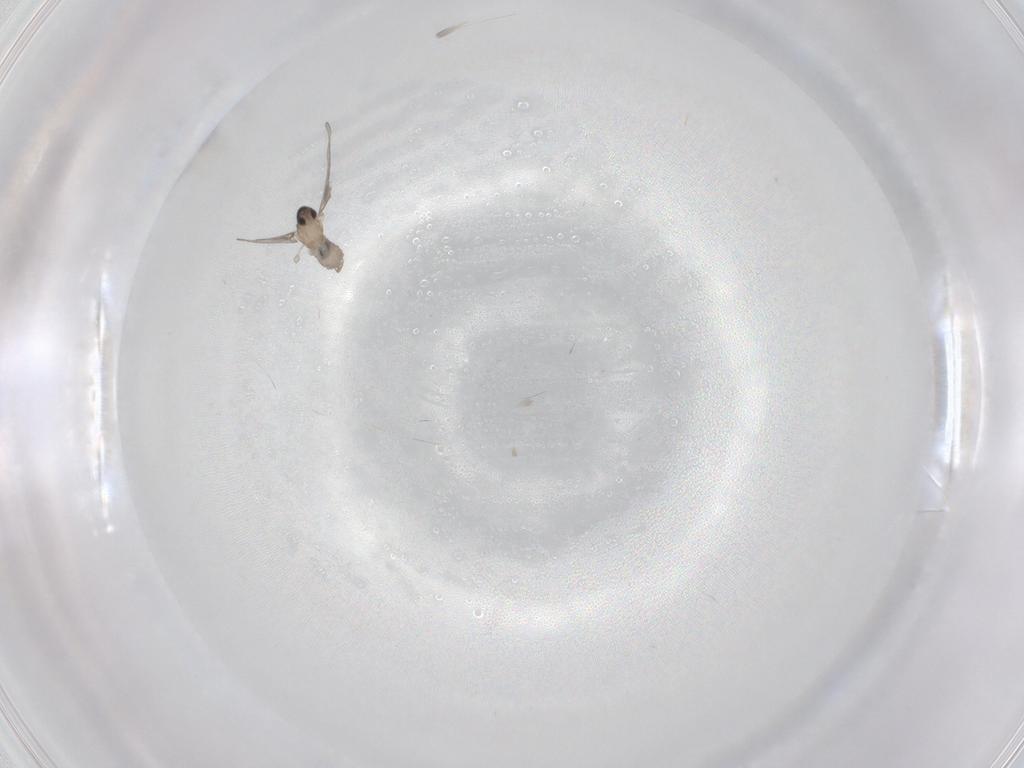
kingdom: Animalia
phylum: Arthropoda
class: Insecta
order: Diptera
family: Cecidomyiidae
